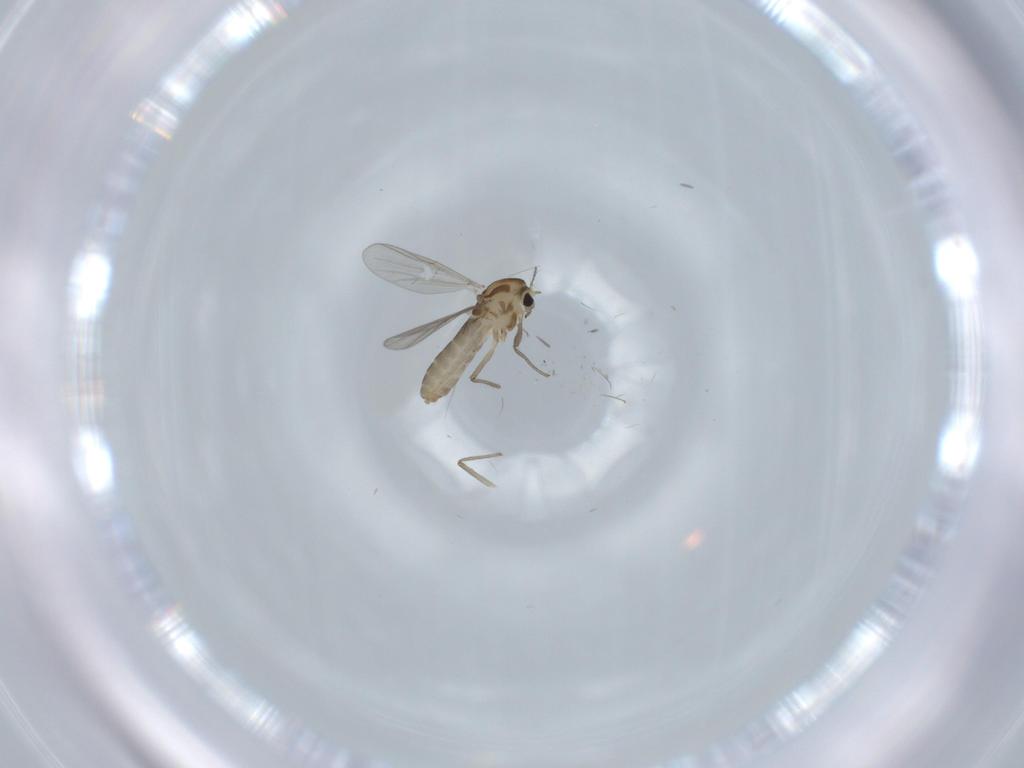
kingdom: Animalia
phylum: Arthropoda
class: Insecta
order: Diptera
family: Chironomidae
